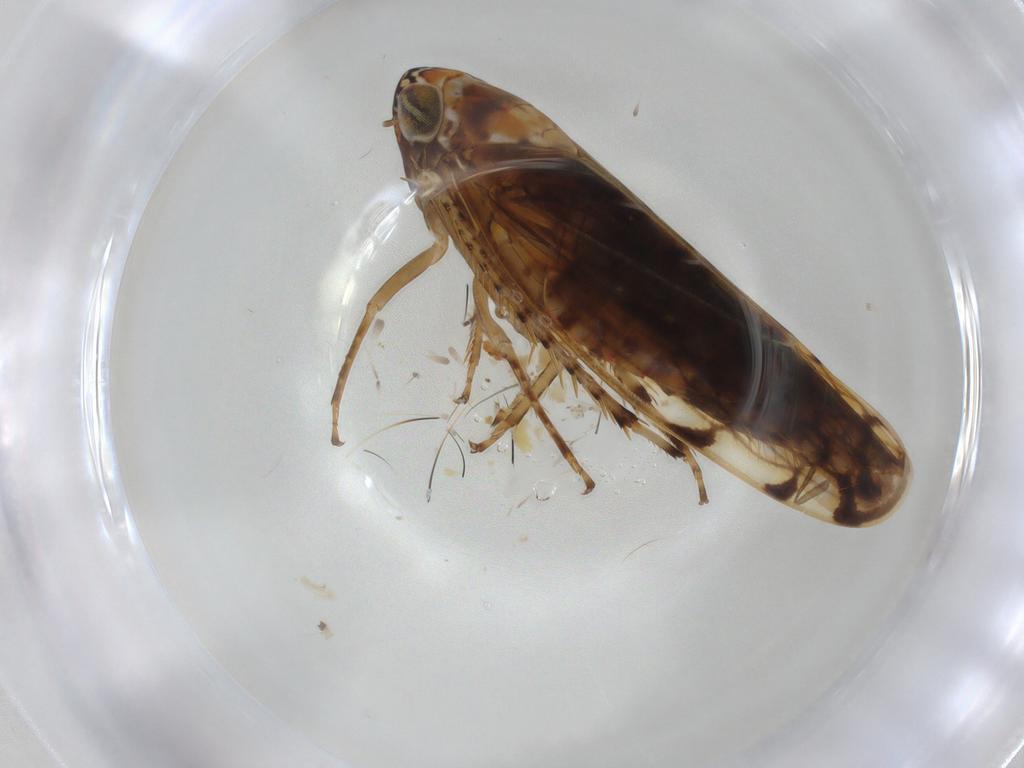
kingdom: Animalia
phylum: Arthropoda
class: Insecta
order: Hemiptera
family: Cicadellidae
